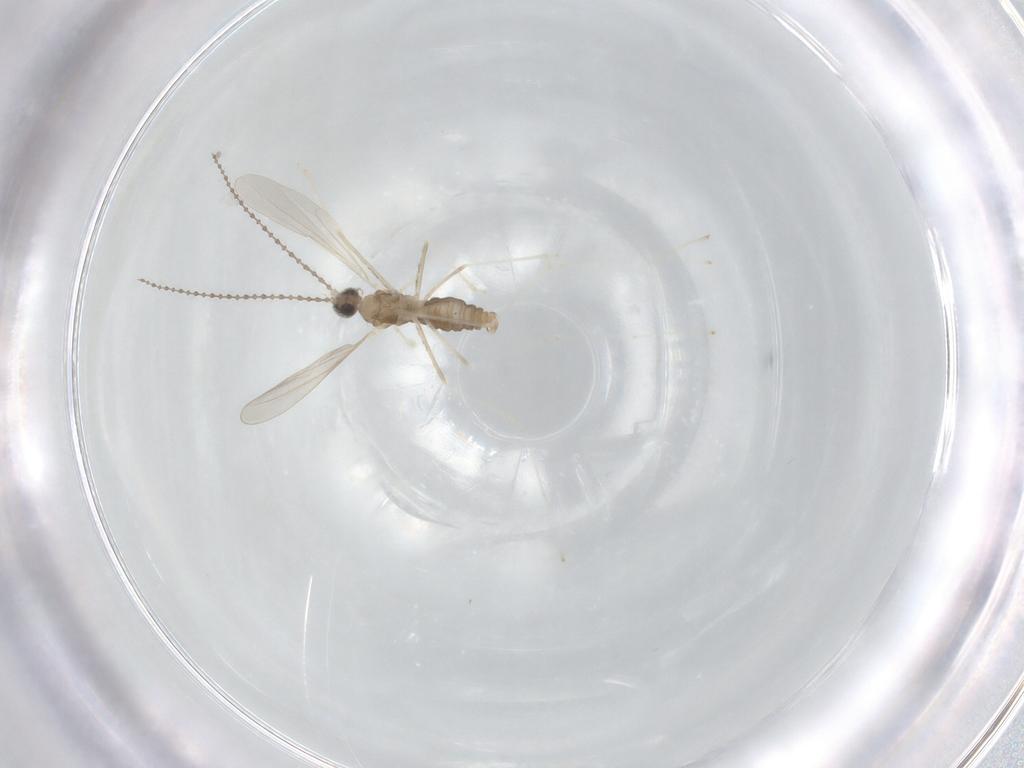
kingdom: Animalia
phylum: Arthropoda
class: Insecta
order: Diptera
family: Cecidomyiidae
